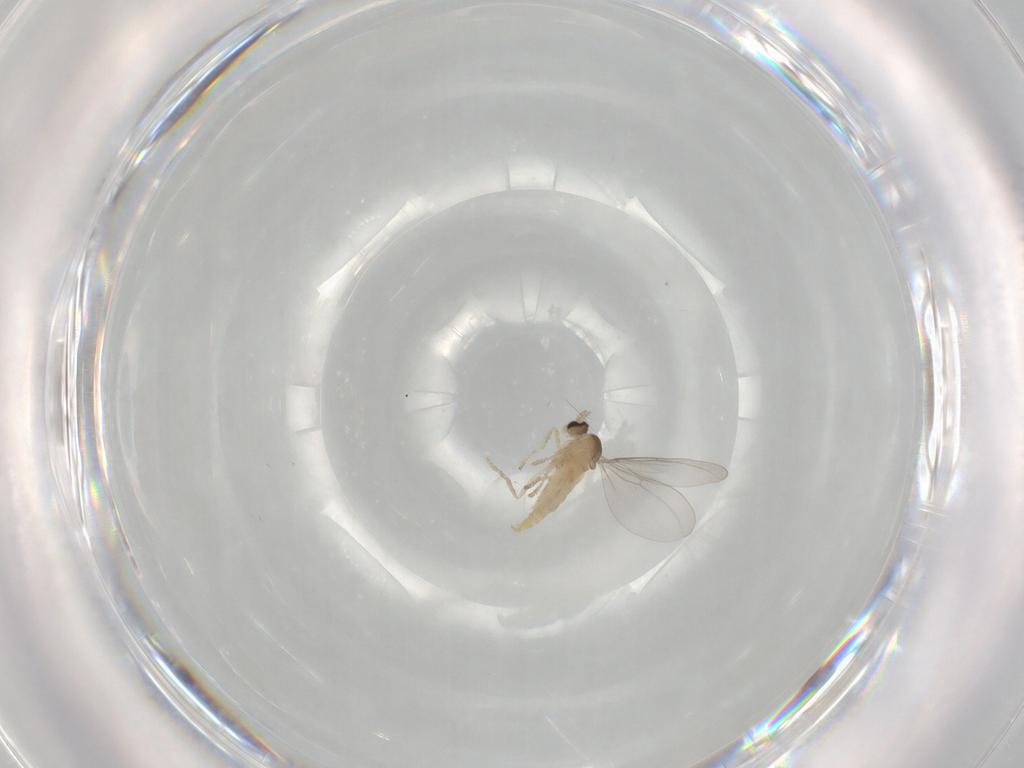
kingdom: Animalia
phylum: Arthropoda
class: Insecta
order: Diptera
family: Cecidomyiidae
